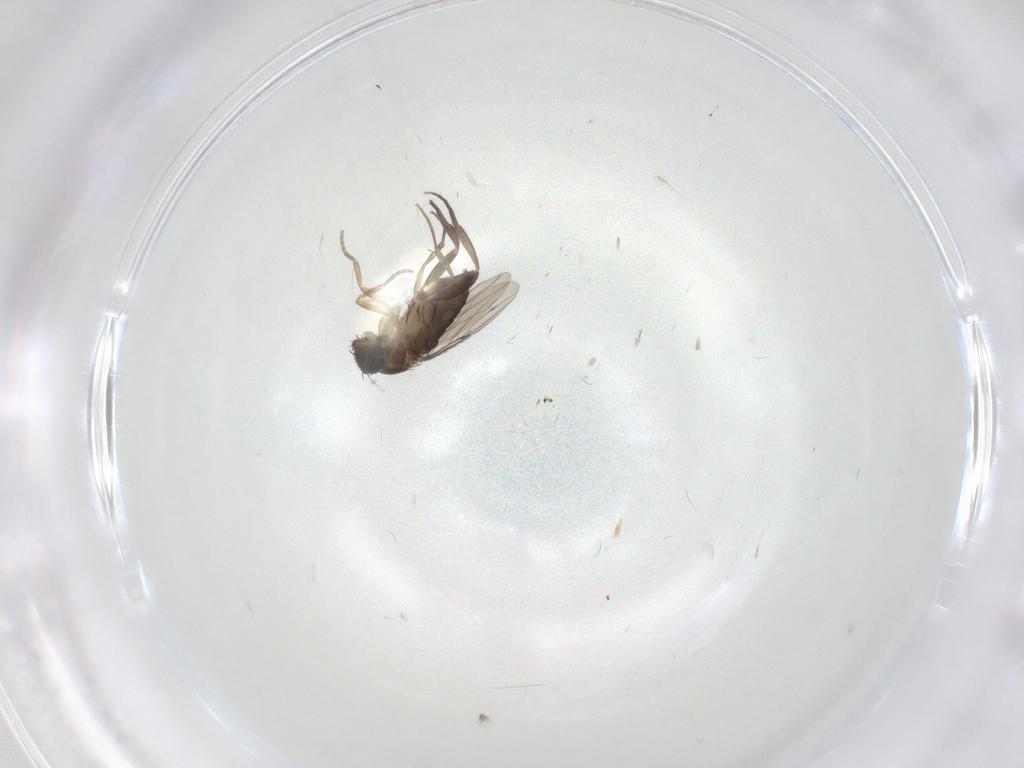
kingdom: Animalia
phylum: Arthropoda
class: Insecta
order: Diptera
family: Phoridae
